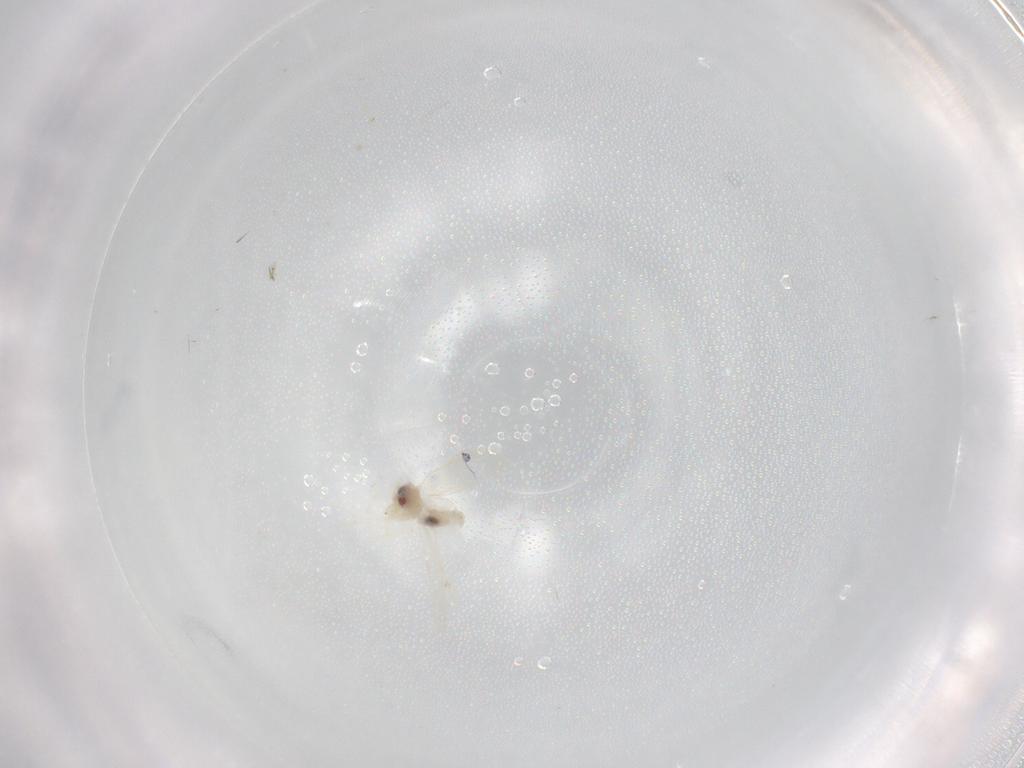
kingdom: Animalia
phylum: Arthropoda
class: Insecta
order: Hemiptera
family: Aleyrodidae
